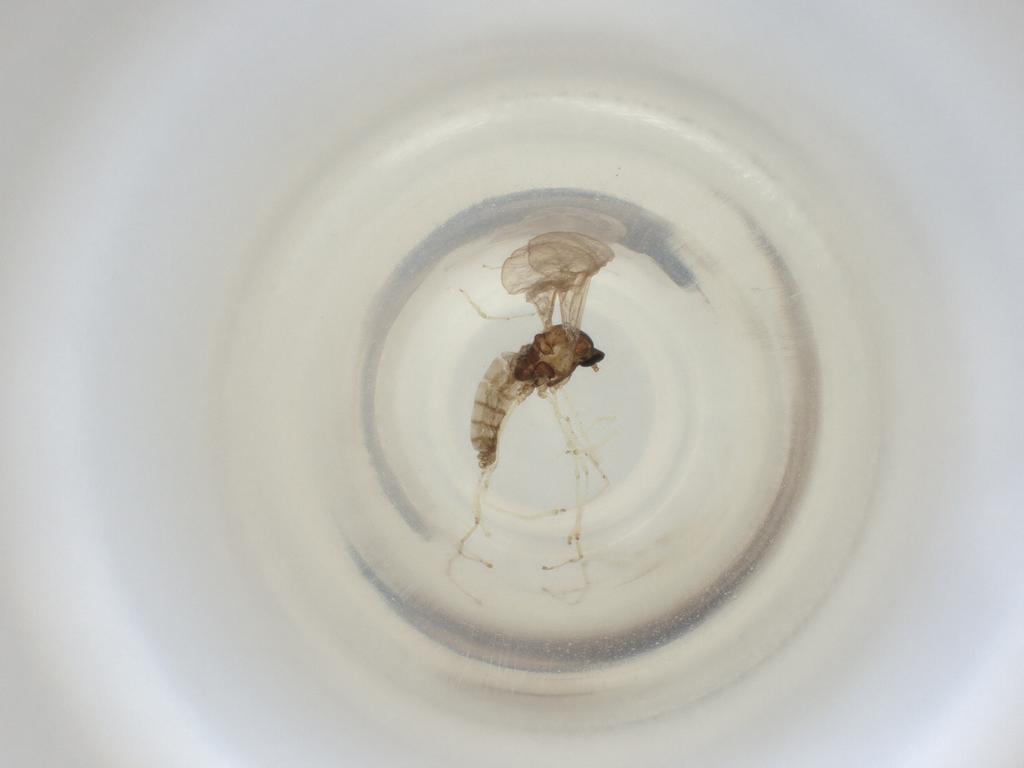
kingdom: Animalia
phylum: Arthropoda
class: Insecta
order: Diptera
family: Cecidomyiidae
